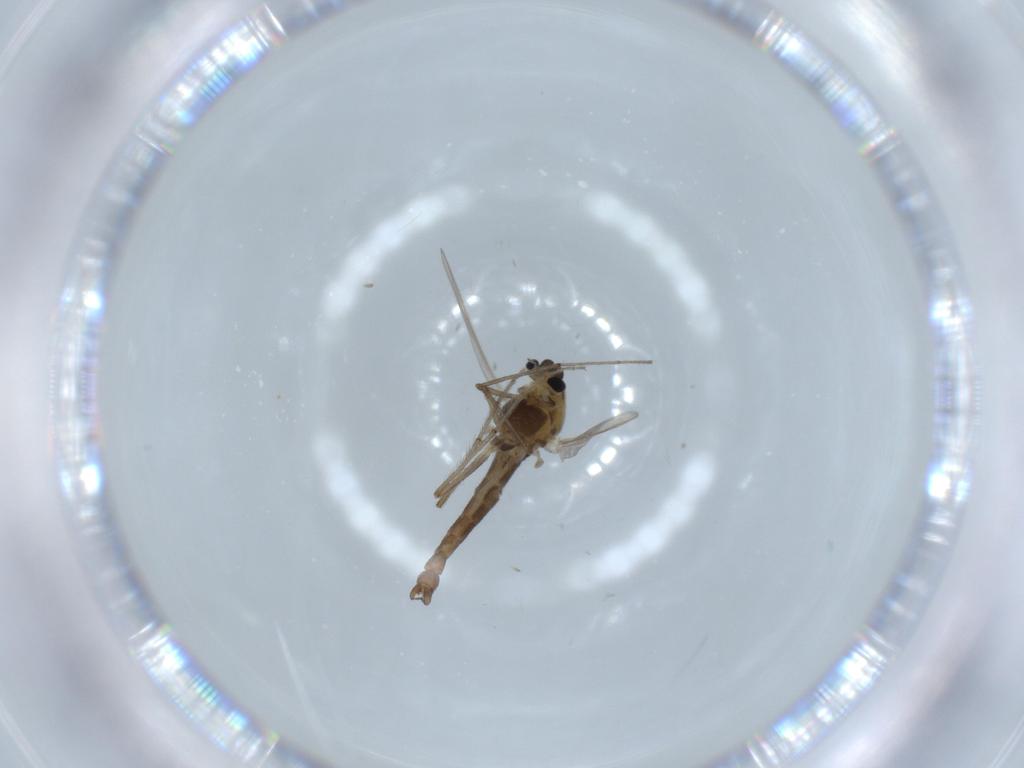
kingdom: Animalia
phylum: Arthropoda
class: Insecta
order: Diptera
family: Chironomidae
